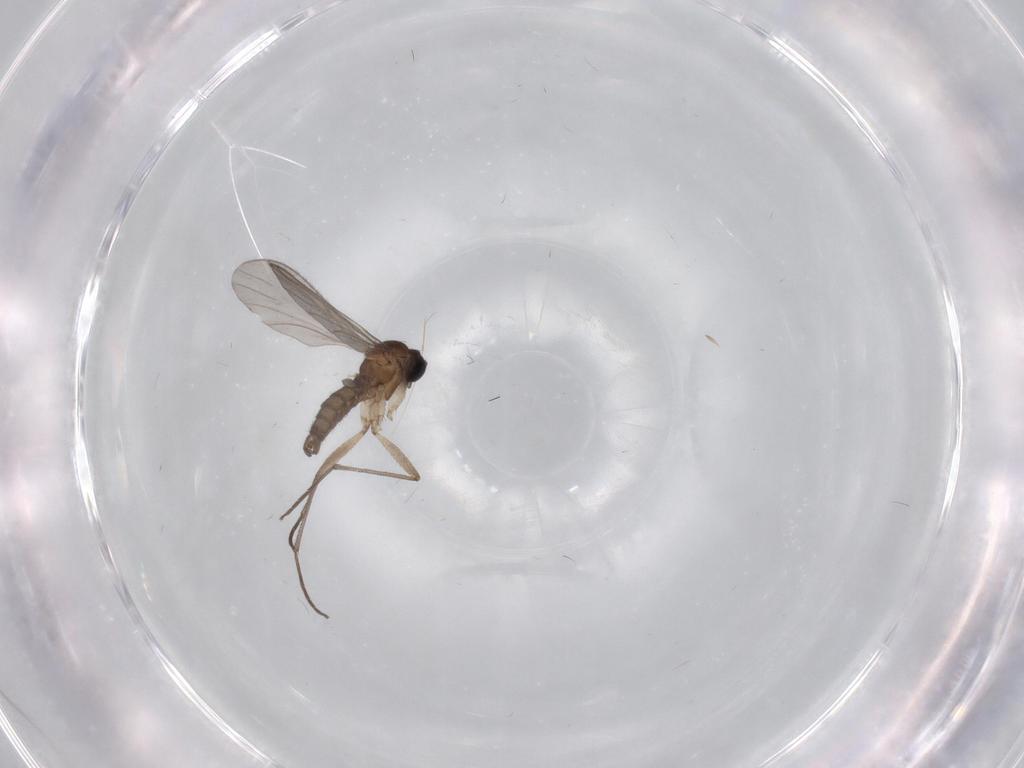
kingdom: Animalia
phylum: Arthropoda
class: Insecta
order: Diptera
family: Sciaridae
